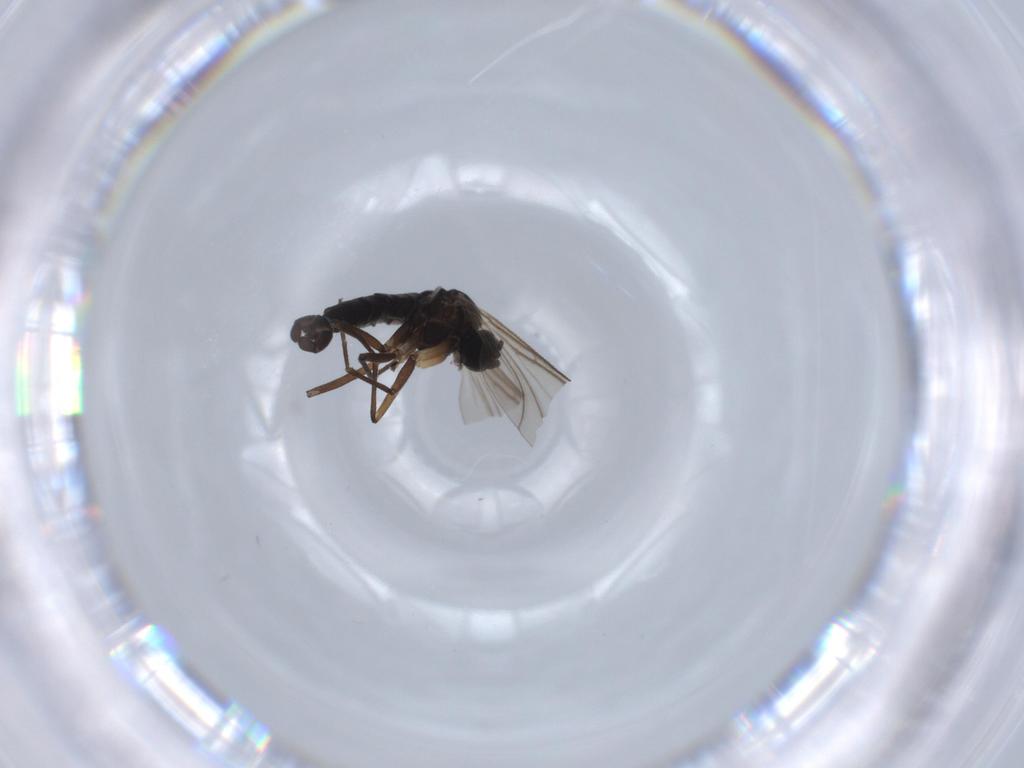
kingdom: Animalia
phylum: Arthropoda
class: Insecta
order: Diptera
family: Sciaridae
